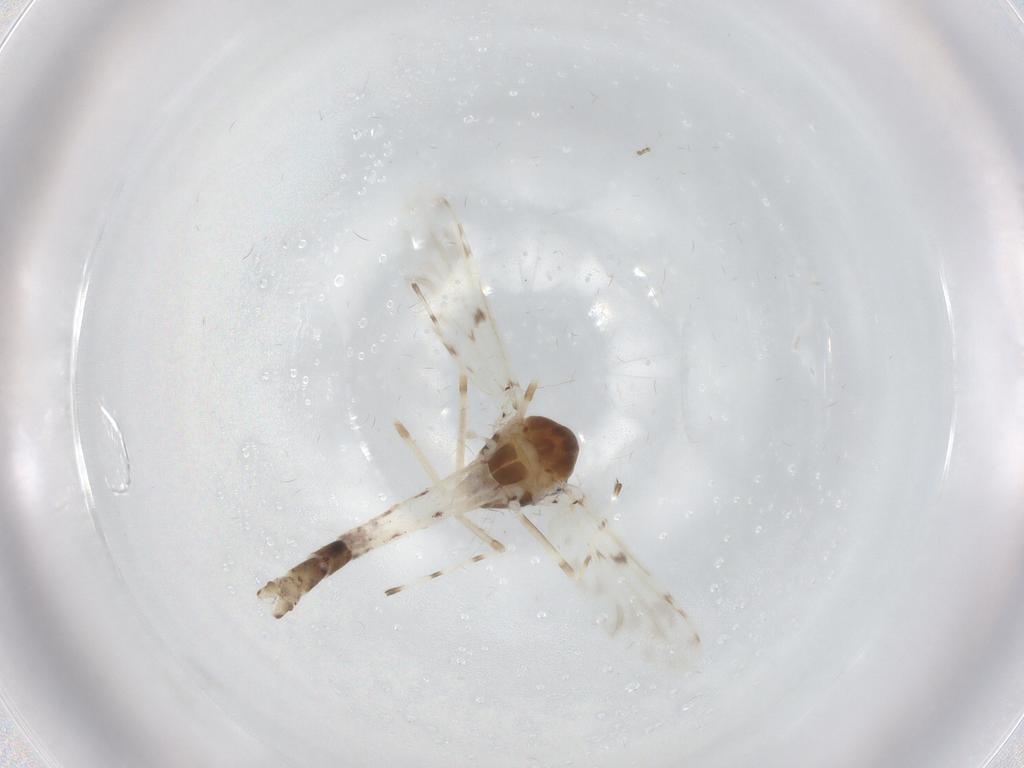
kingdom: Animalia
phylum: Arthropoda
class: Insecta
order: Diptera
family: Chironomidae
